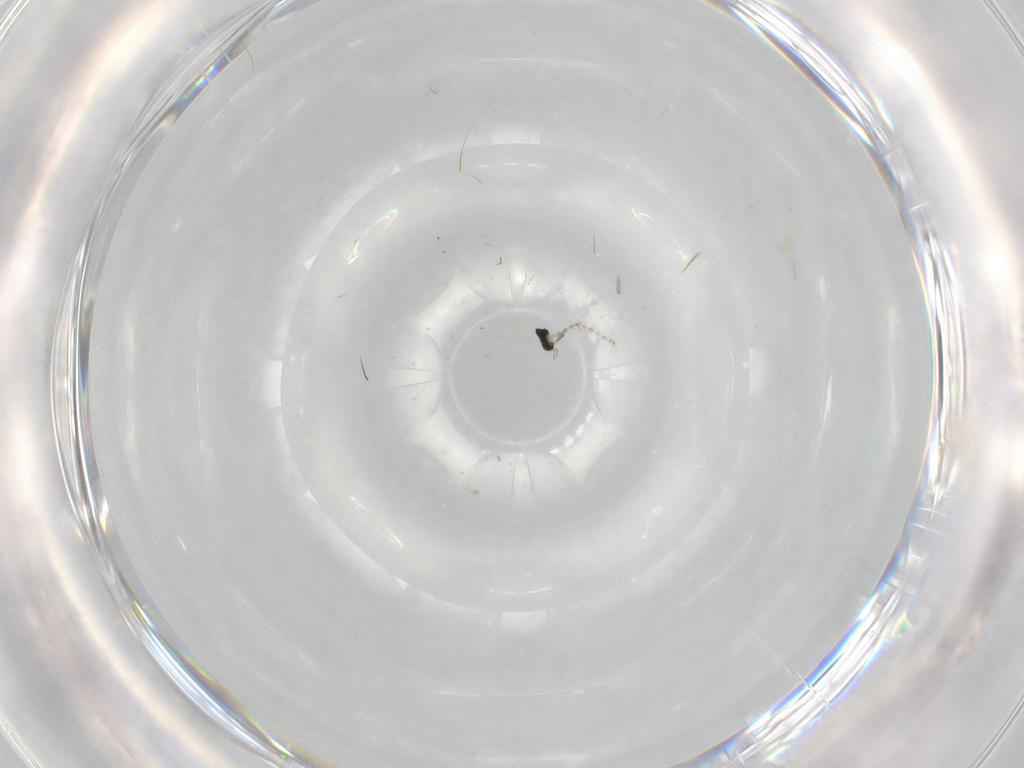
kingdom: Animalia
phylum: Arthropoda
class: Insecta
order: Diptera
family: Cecidomyiidae
